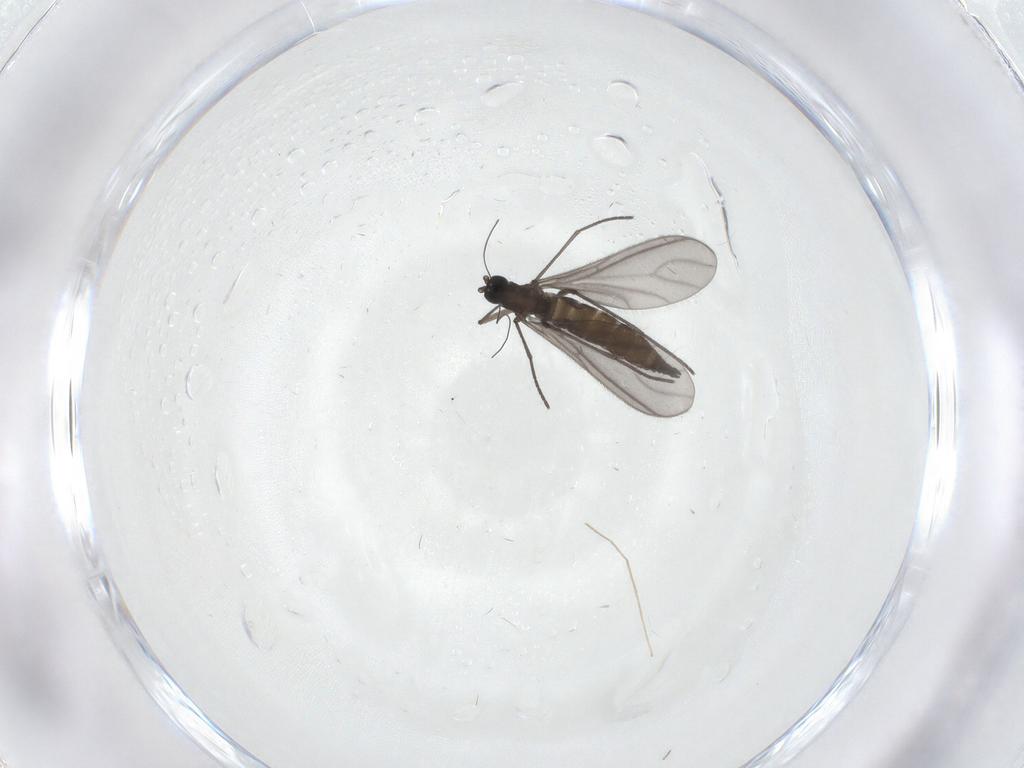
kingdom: Animalia
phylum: Arthropoda
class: Insecta
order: Diptera
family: Sciaridae
